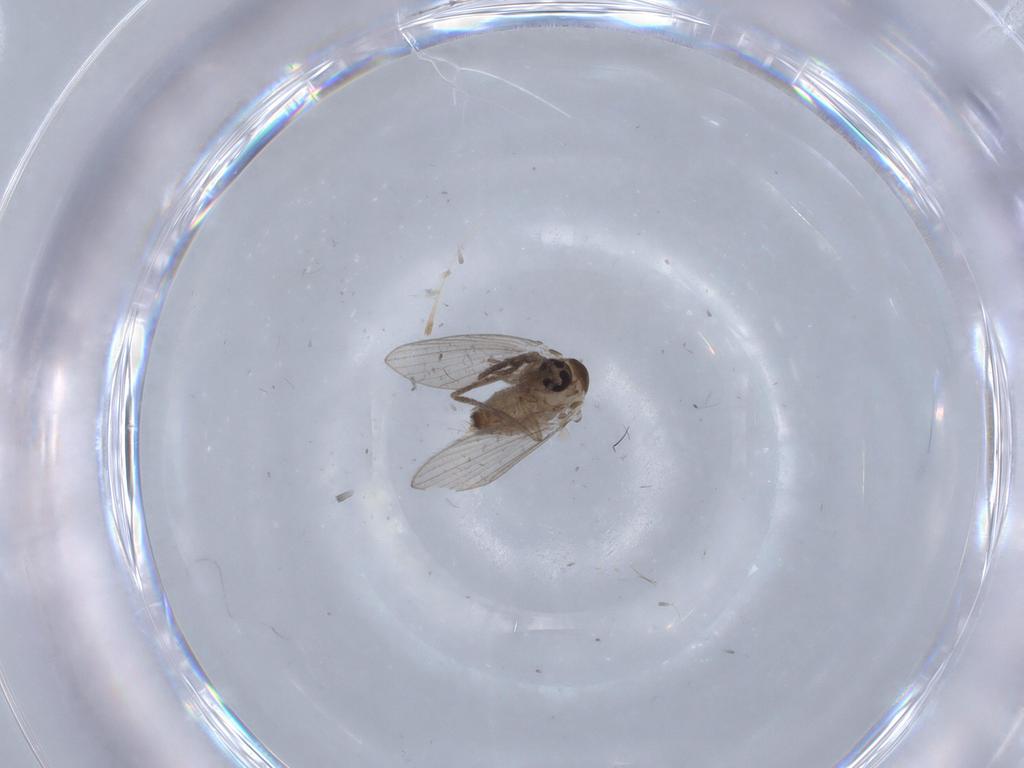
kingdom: Animalia
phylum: Arthropoda
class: Insecta
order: Diptera
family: Psychodidae
